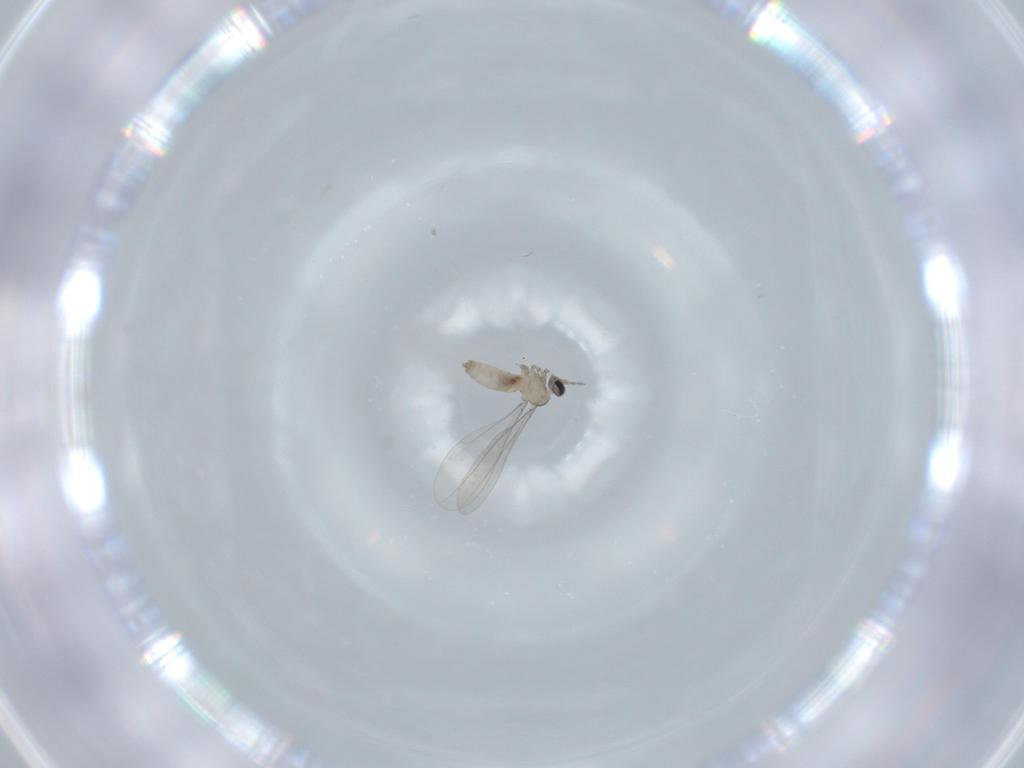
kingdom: Animalia
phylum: Arthropoda
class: Insecta
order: Diptera
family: Cecidomyiidae
